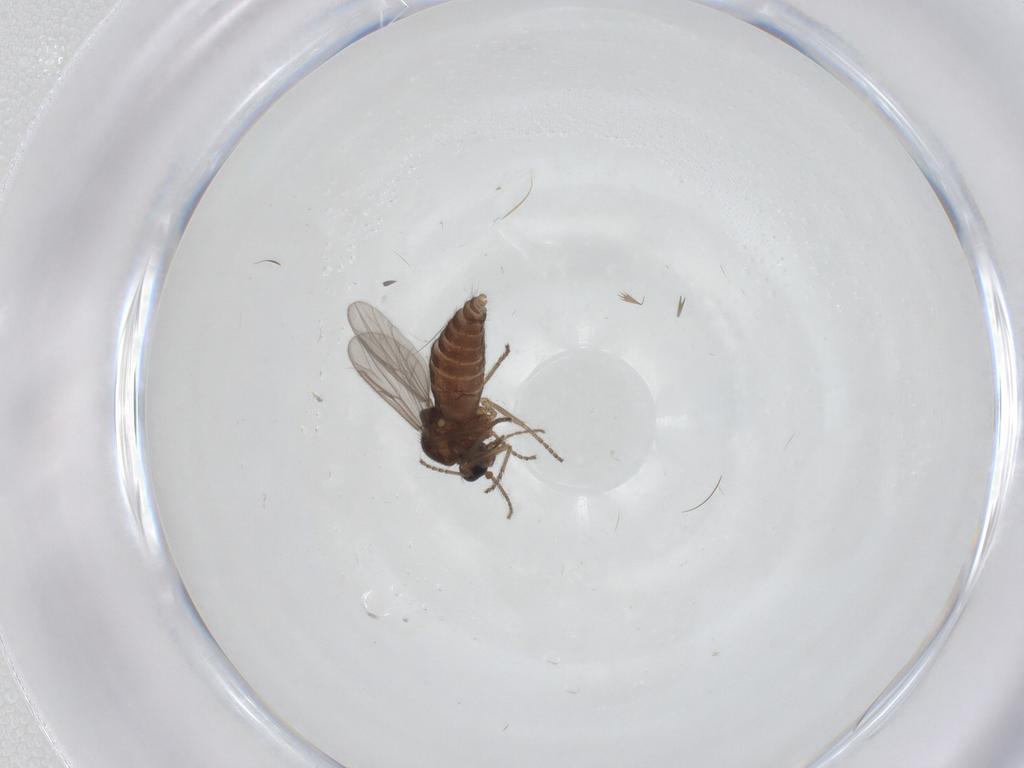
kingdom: Animalia
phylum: Arthropoda
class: Insecta
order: Diptera
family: Ceratopogonidae
